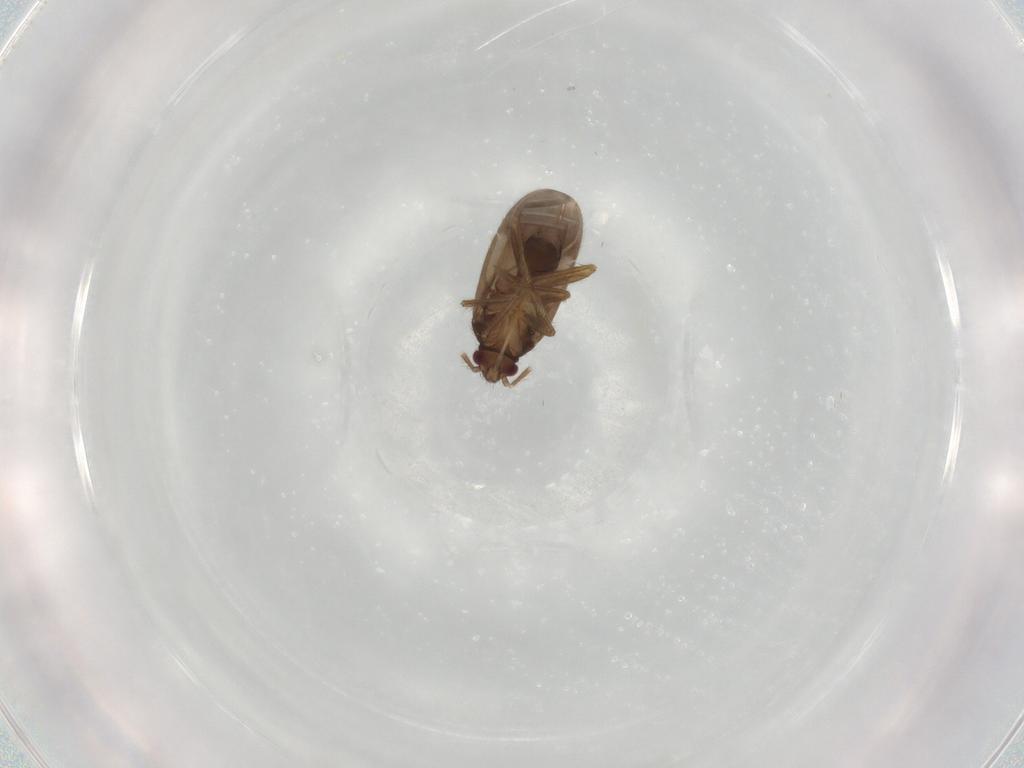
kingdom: Animalia
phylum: Arthropoda
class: Insecta
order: Hemiptera
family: Ceratocombidae
